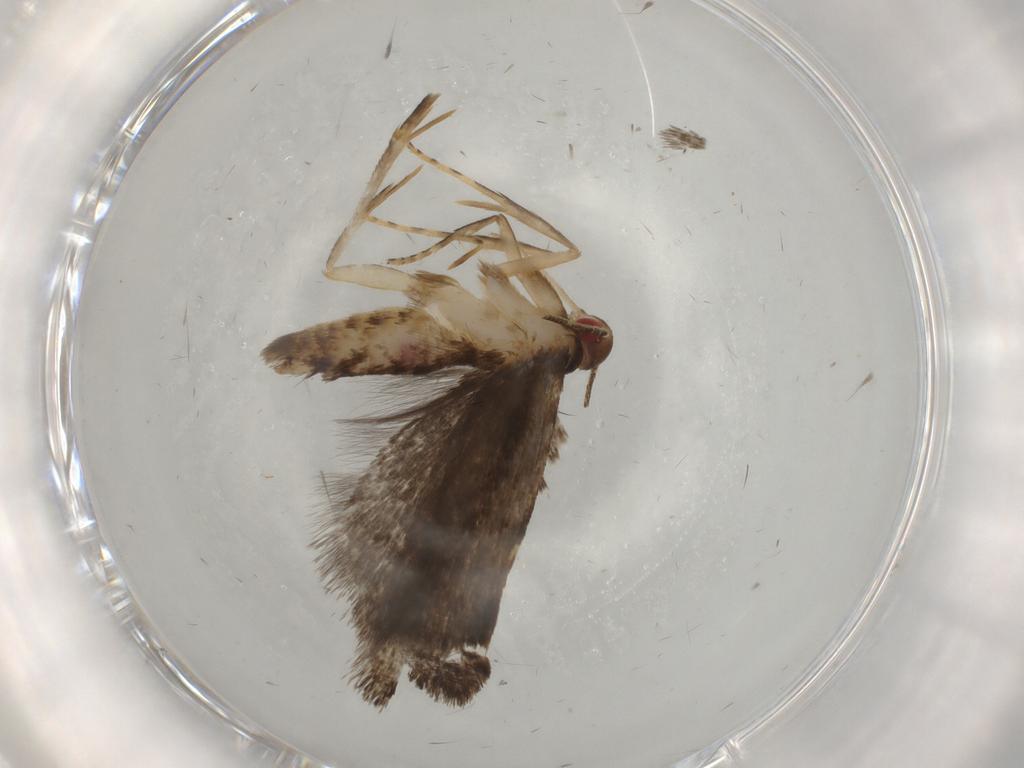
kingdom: Animalia
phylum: Arthropoda
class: Insecta
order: Lepidoptera
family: Gelechiidae
